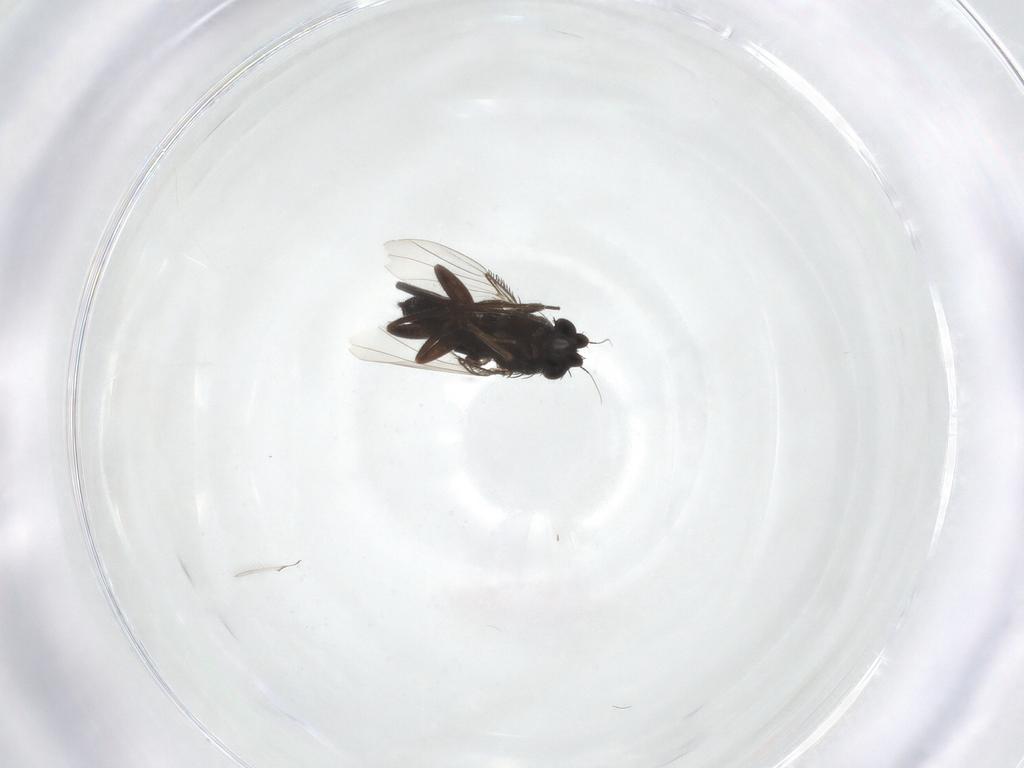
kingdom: Animalia
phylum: Arthropoda
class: Insecta
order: Diptera
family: Phoridae
